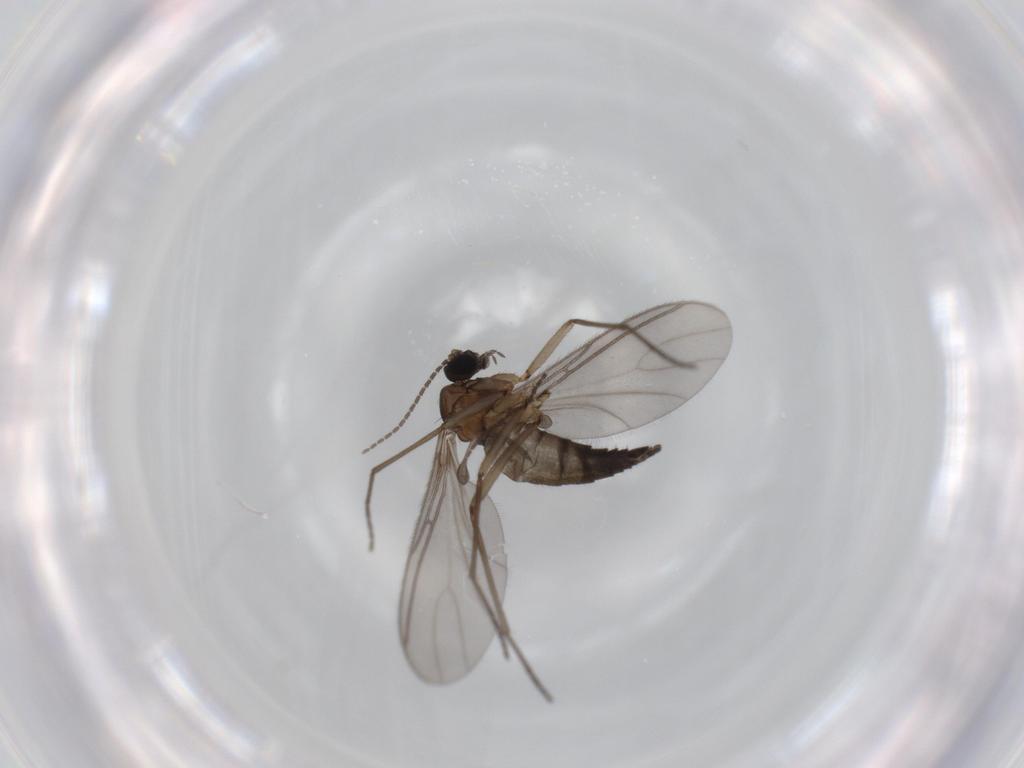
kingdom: Animalia
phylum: Arthropoda
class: Insecta
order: Diptera
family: Sciaridae
